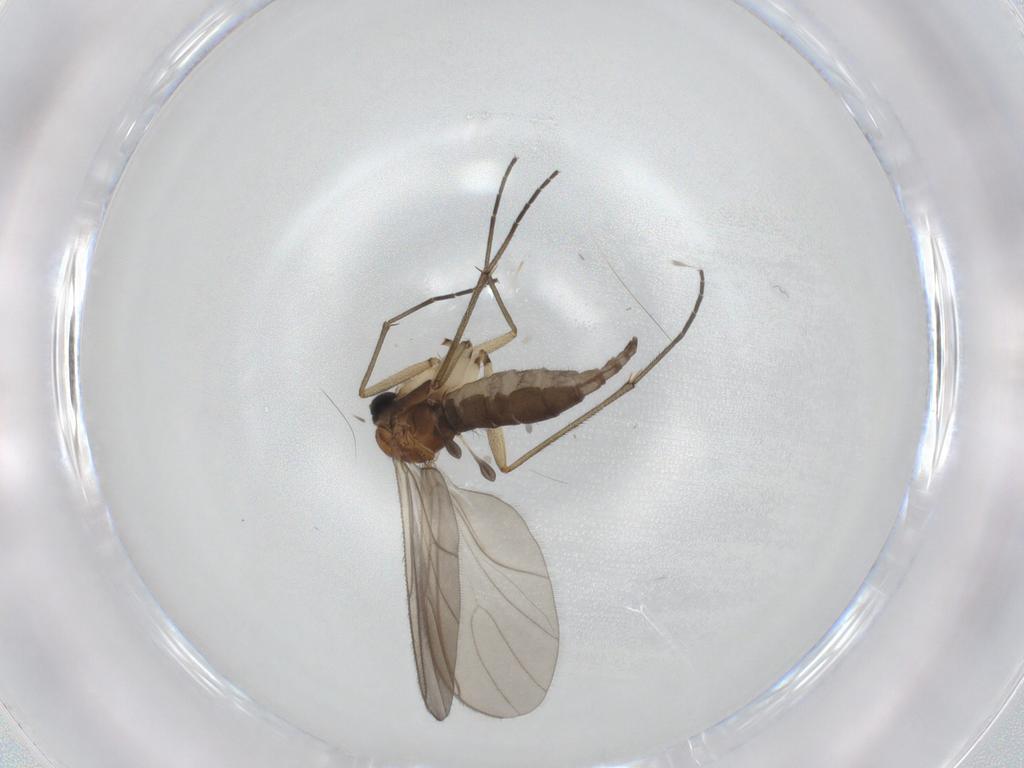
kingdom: Animalia
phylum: Arthropoda
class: Insecta
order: Diptera
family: Sciaridae
